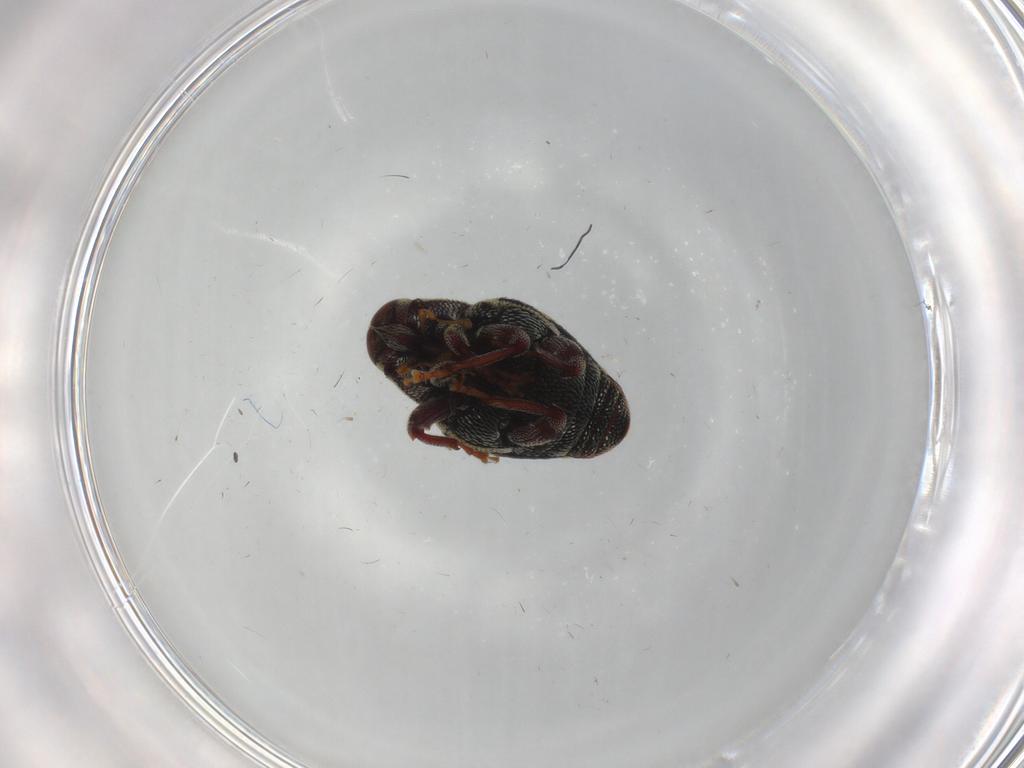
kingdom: Animalia
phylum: Arthropoda
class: Insecta
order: Coleoptera
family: Curculionidae
